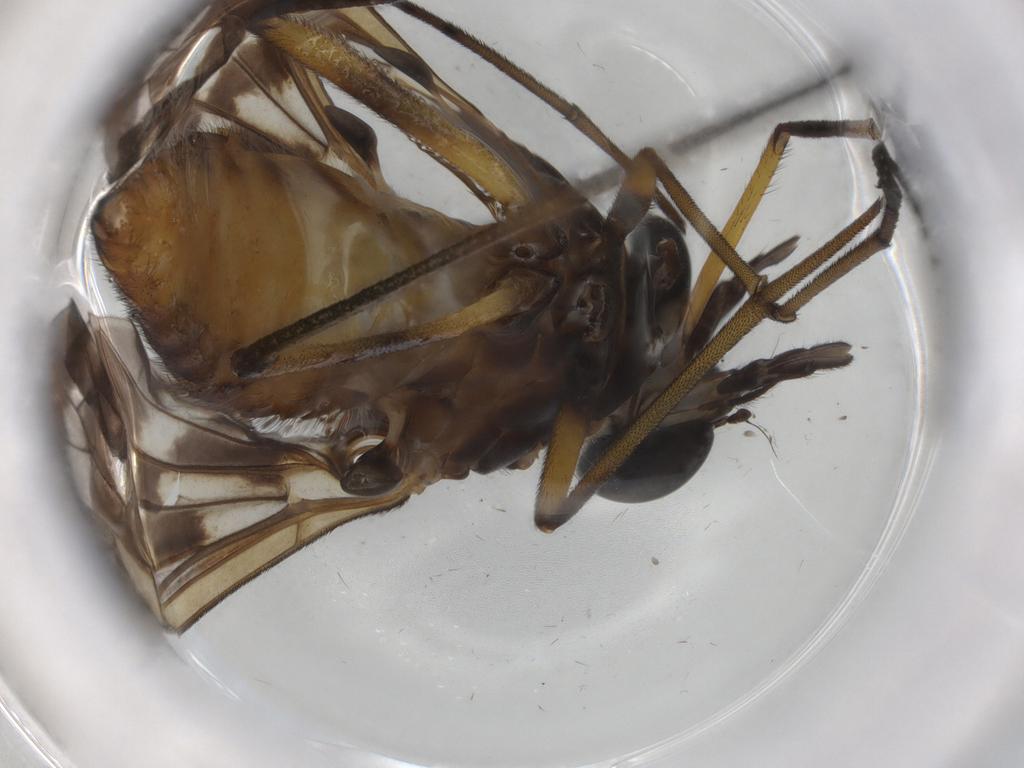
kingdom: Animalia
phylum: Arthropoda
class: Insecta
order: Diptera
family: Athericidae
